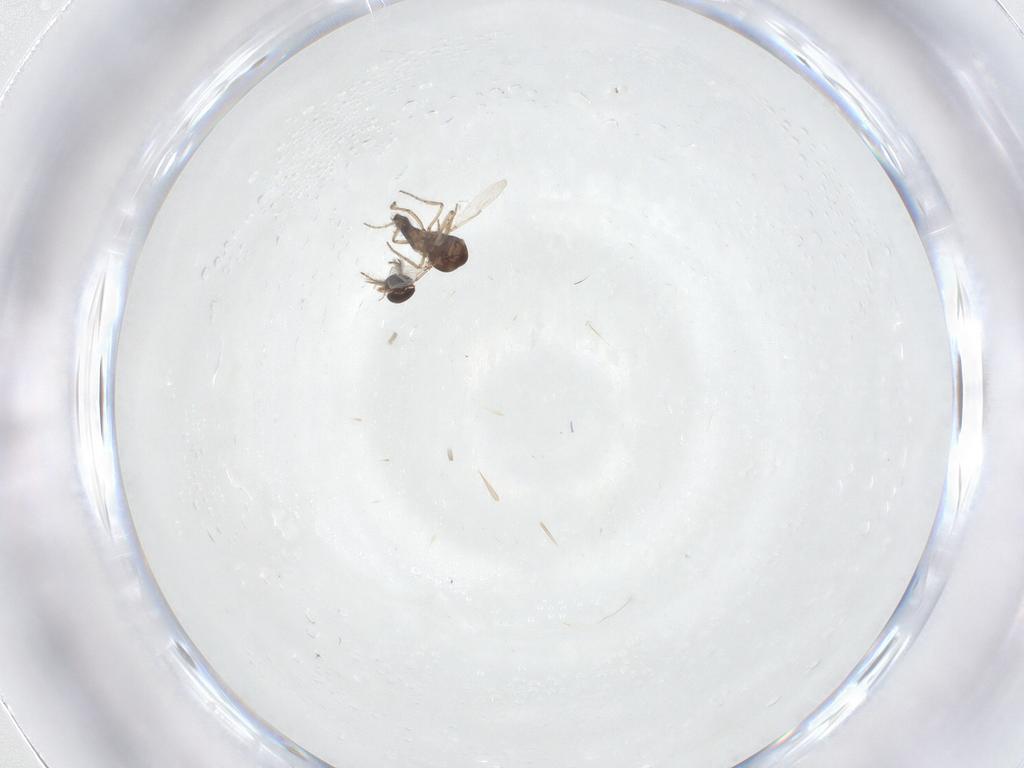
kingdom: Animalia
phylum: Arthropoda
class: Insecta
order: Diptera
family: Ceratopogonidae
